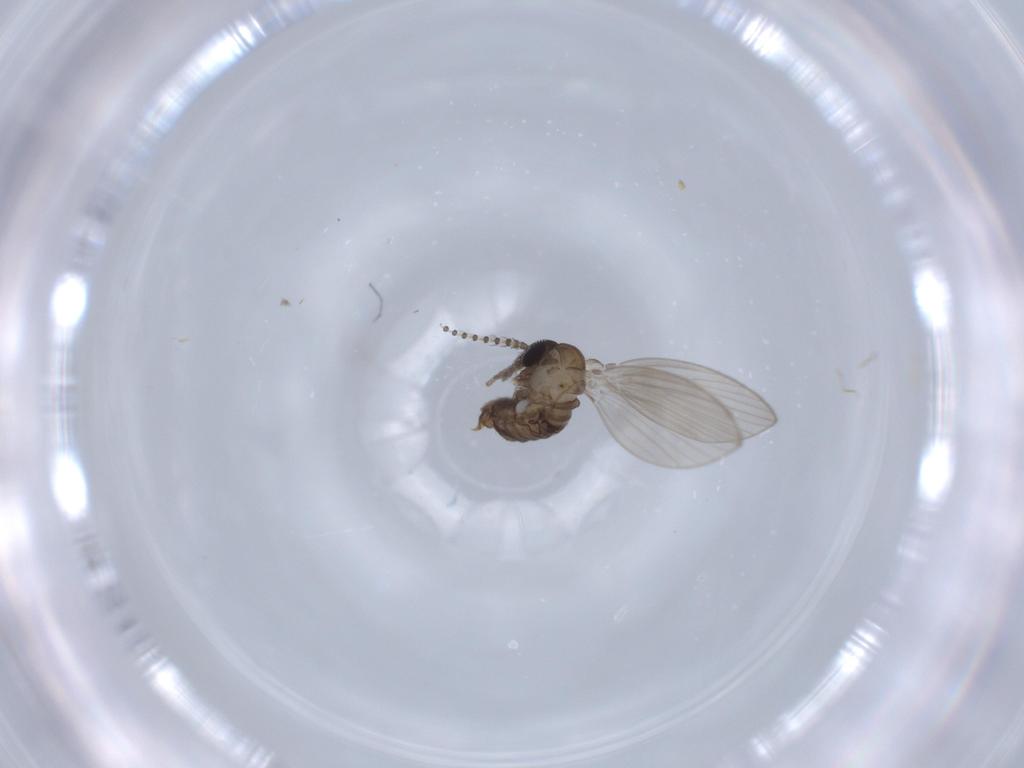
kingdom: Animalia
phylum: Arthropoda
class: Insecta
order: Diptera
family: Psychodidae
